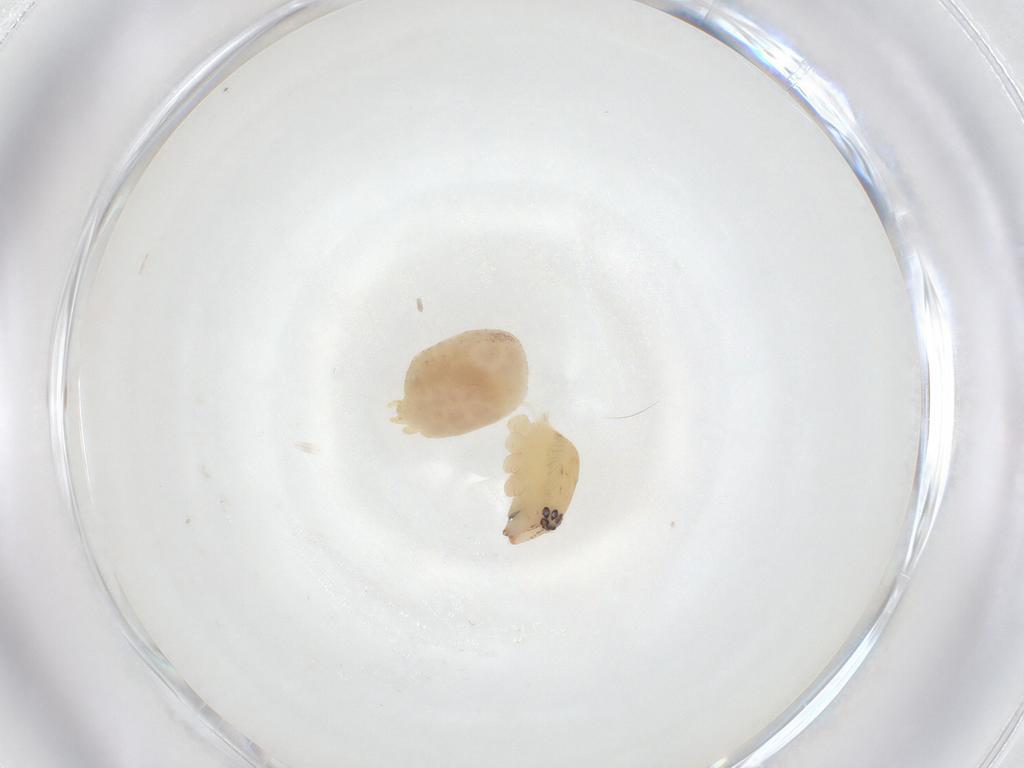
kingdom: Animalia
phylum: Arthropoda
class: Arachnida
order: Araneae
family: Anyphaenidae
